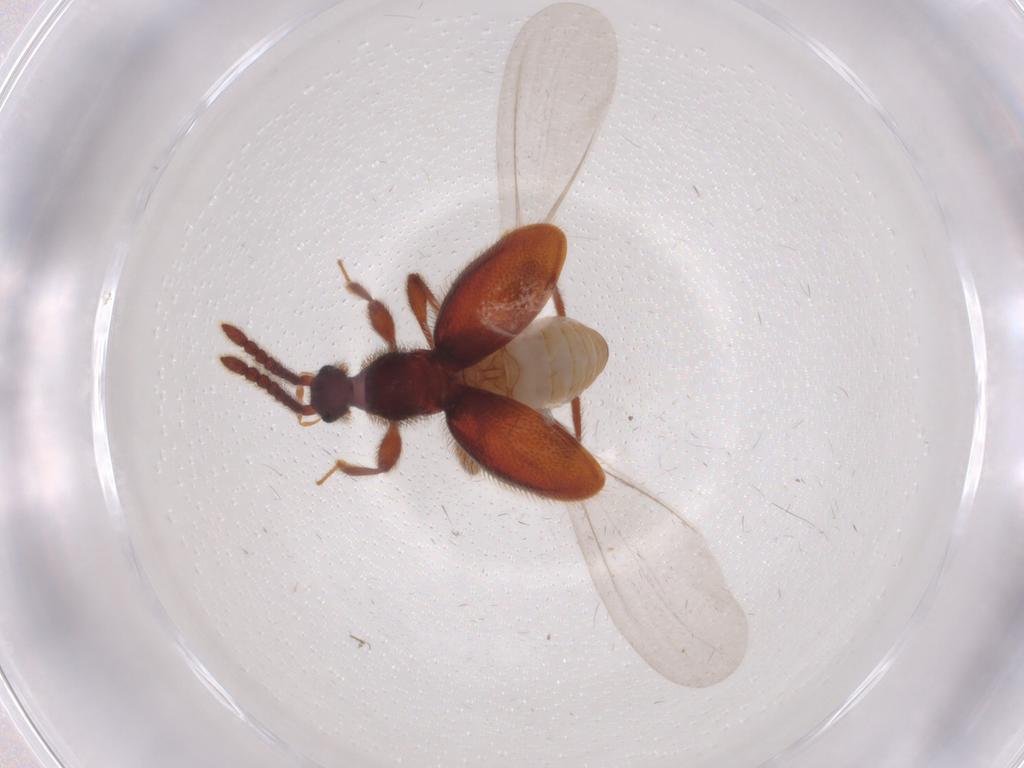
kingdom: Animalia
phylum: Arthropoda
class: Insecta
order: Coleoptera
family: Staphylinidae
